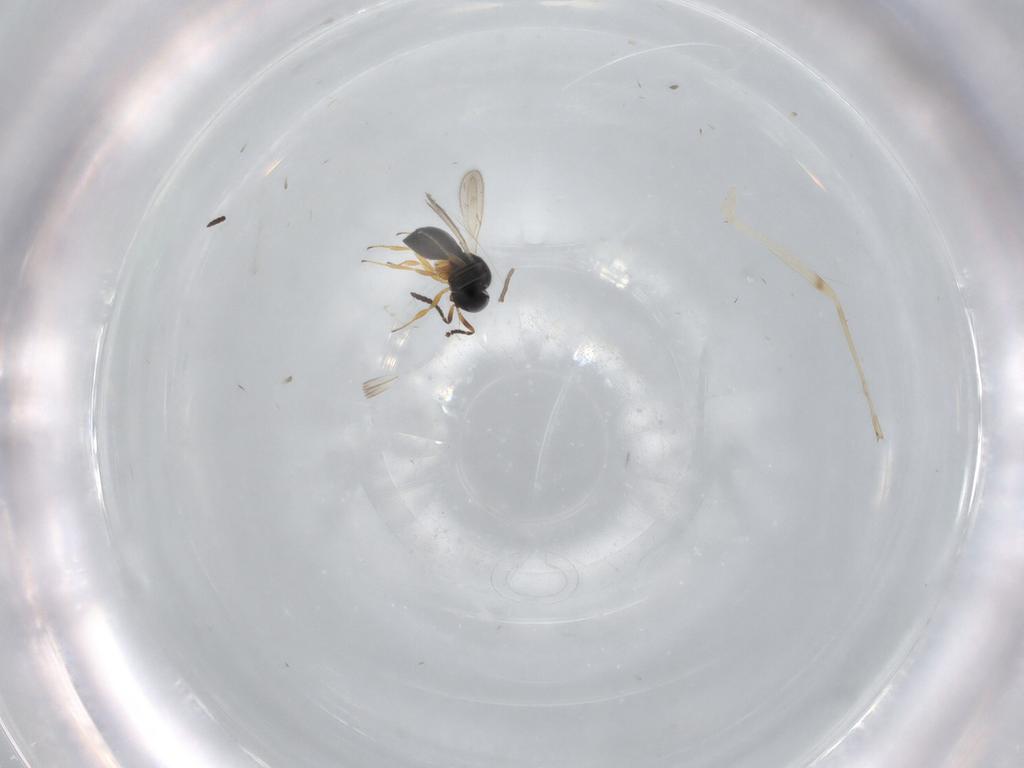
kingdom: Animalia
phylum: Arthropoda
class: Insecta
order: Hymenoptera
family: Scelionidae
